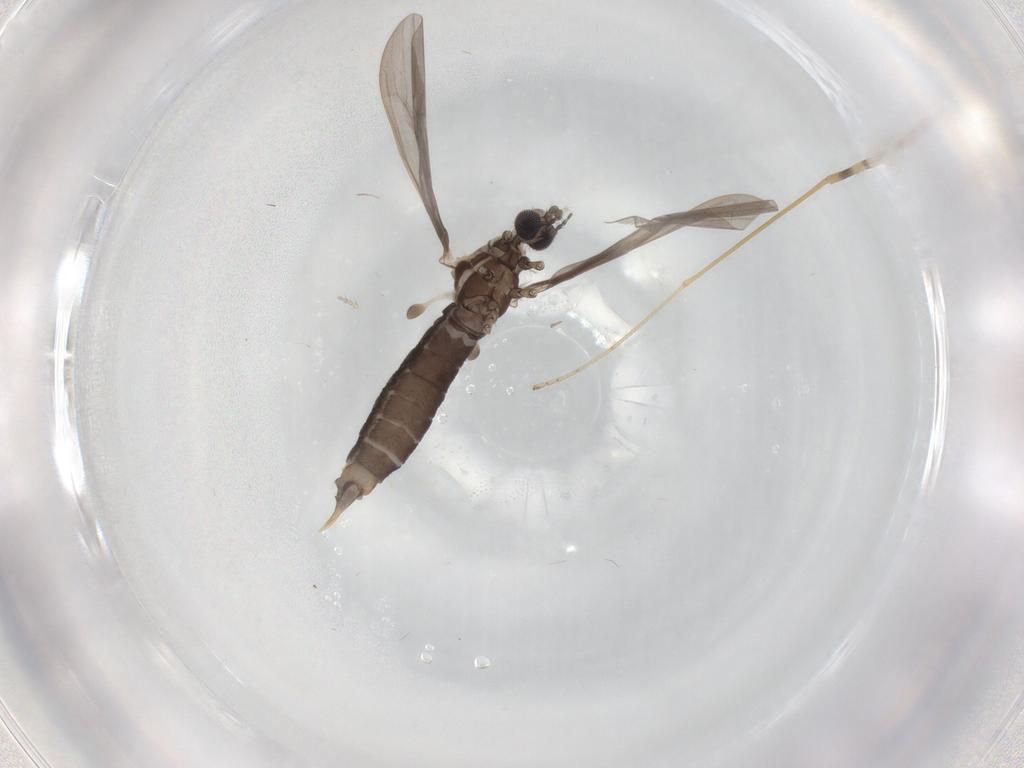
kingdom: Animalia
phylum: Arthropoda
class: Insecta
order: Diptera
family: Limoniidae
